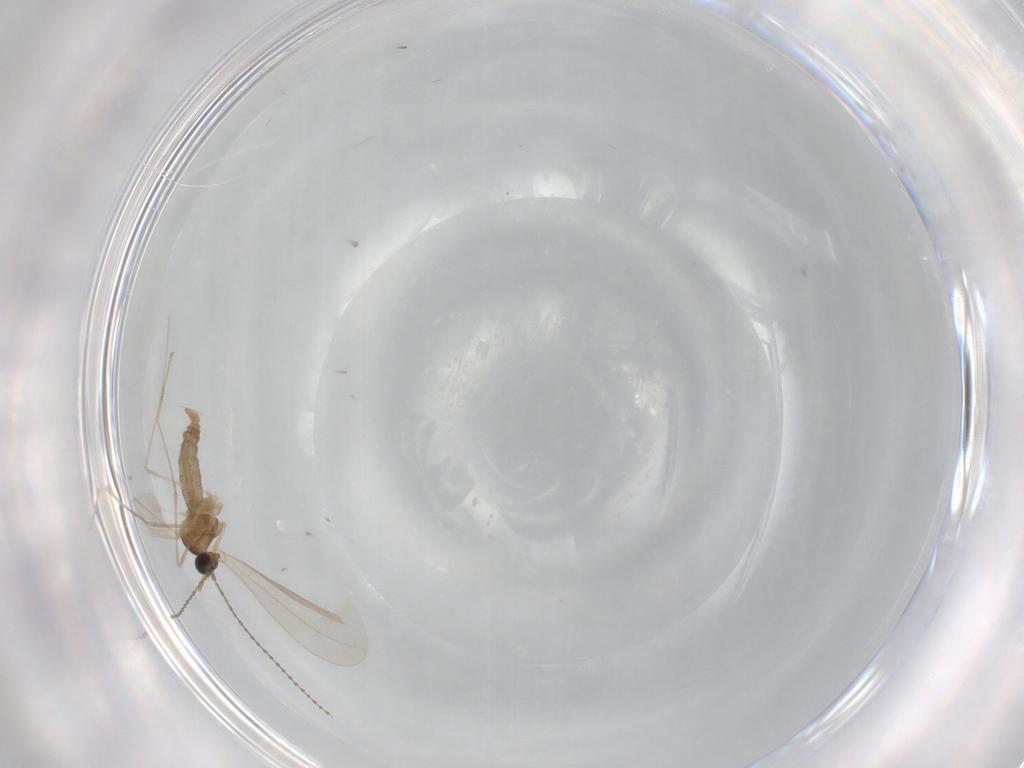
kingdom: Animalia
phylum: Arthropoda
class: Insecta
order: Diptera
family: Cecidomyiidae
